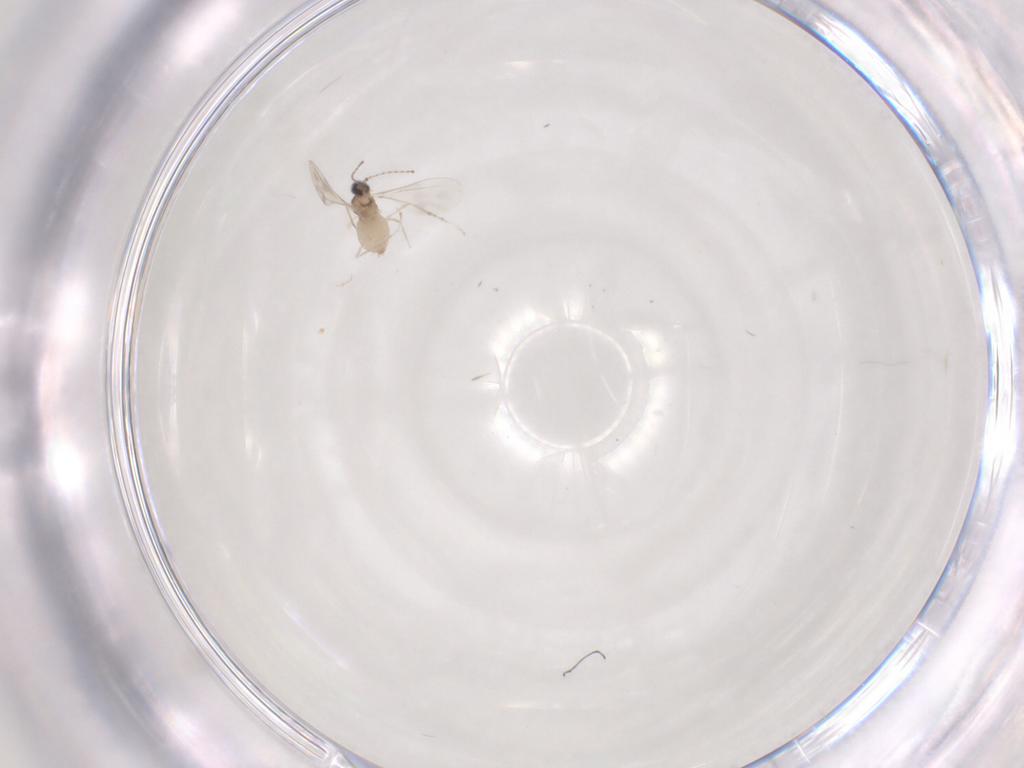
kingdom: Animalia
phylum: Arthropoda
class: Insecta
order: Diptera
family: Cecidomyiidae
